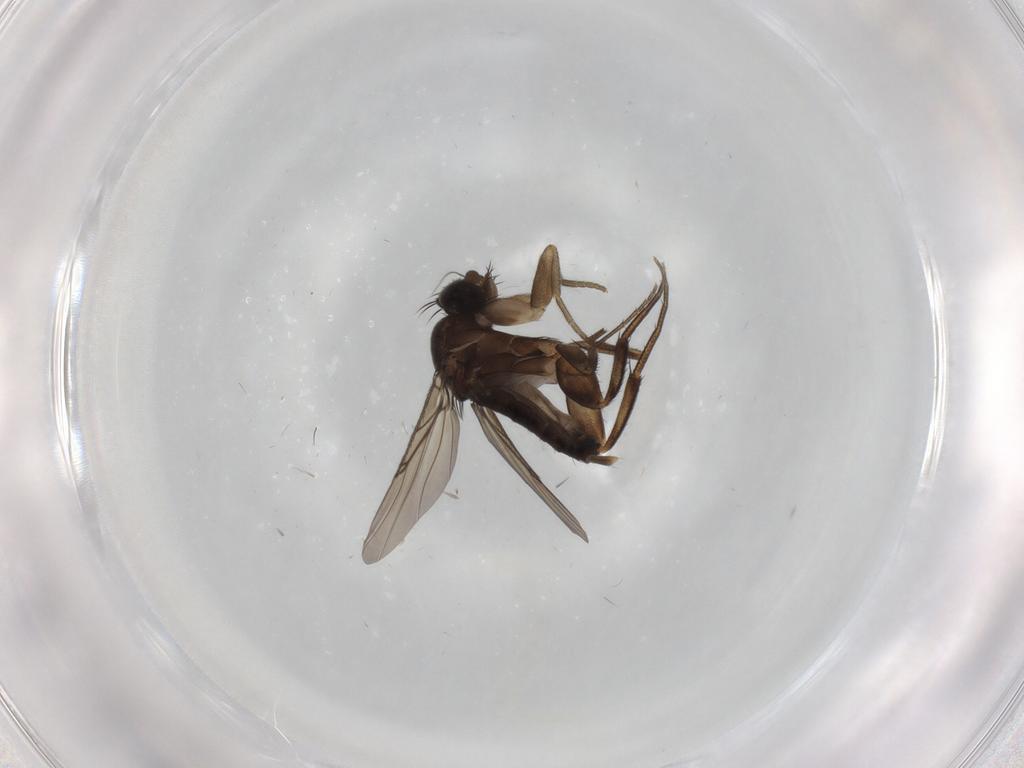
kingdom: Animalia
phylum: Arthropoda
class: Insecta
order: Diptera
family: Phoridae
